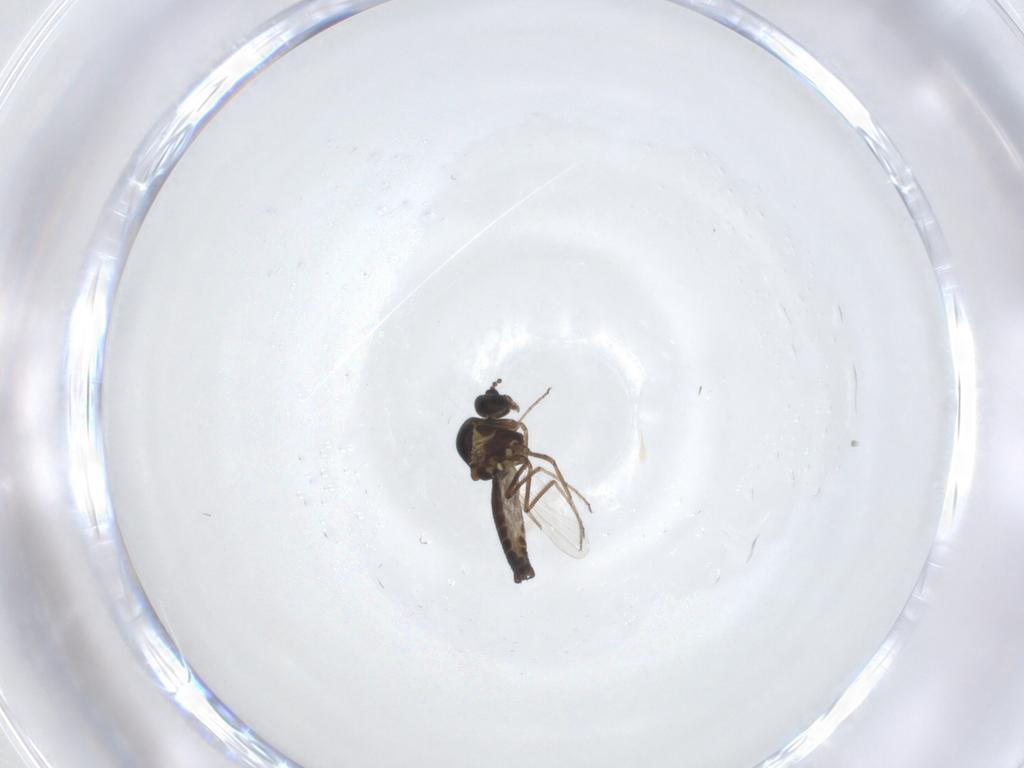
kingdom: Animalia
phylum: Arthropoda
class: Insecta
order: Diptera
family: Ceratopogonidae
